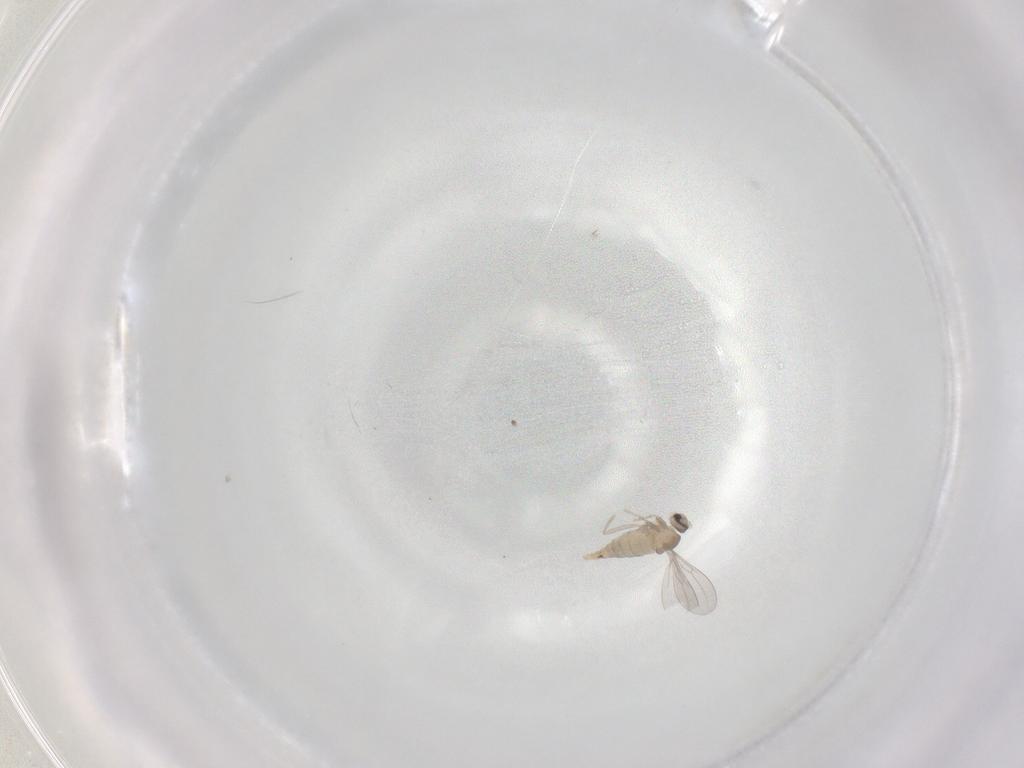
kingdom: Animalia
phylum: Arthropoda
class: Insecta
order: Diptera
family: Cecidomyiidae
